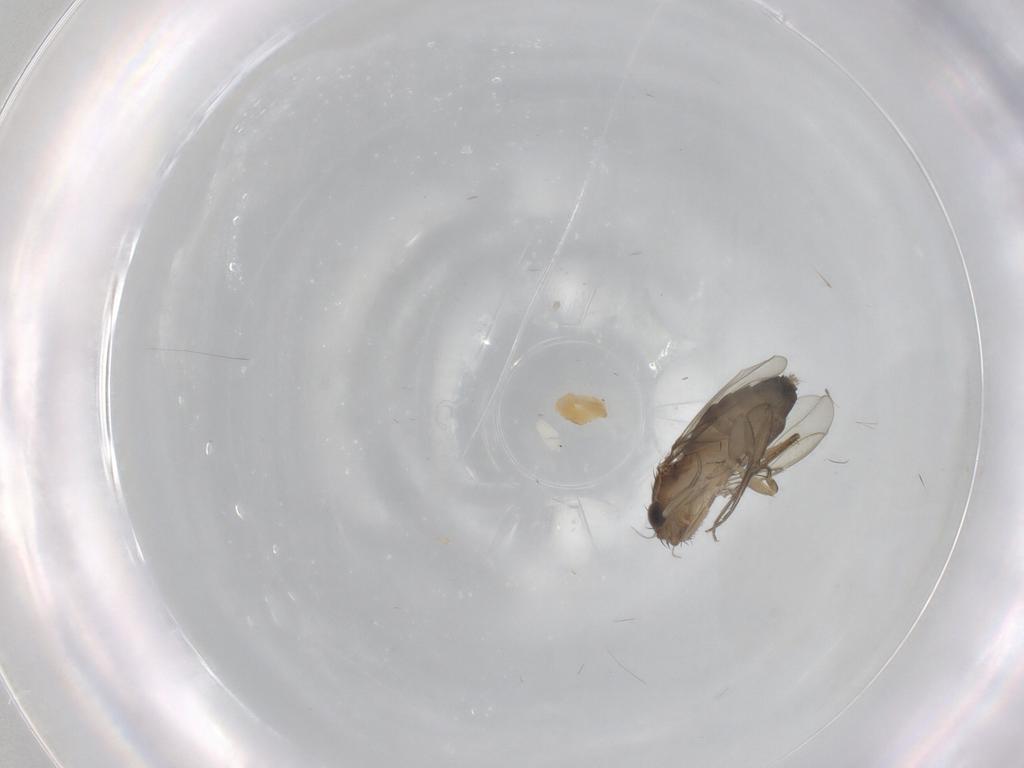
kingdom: Animalia
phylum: Arthropoda
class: Insecta
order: Diptera
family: Phoridae
